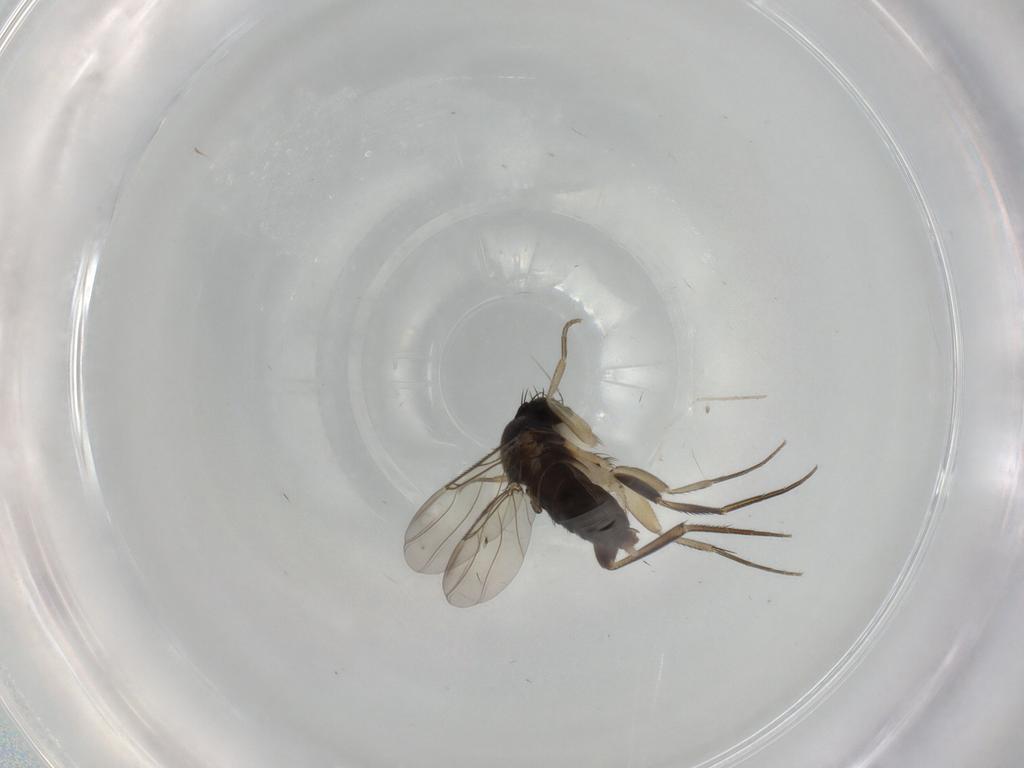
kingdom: Animalia
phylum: Arthropoda
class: Insecta
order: Diptera
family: Phoridae
